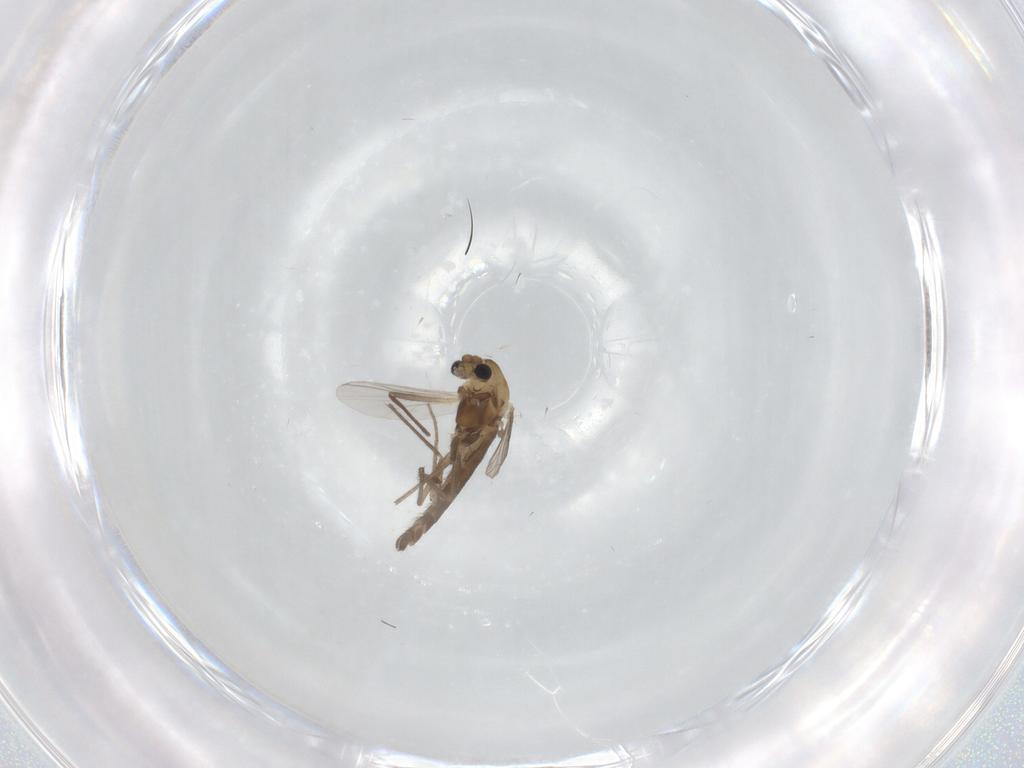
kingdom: Animalia
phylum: Arthropoda
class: Insecta
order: Diptera
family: Chironomidae
